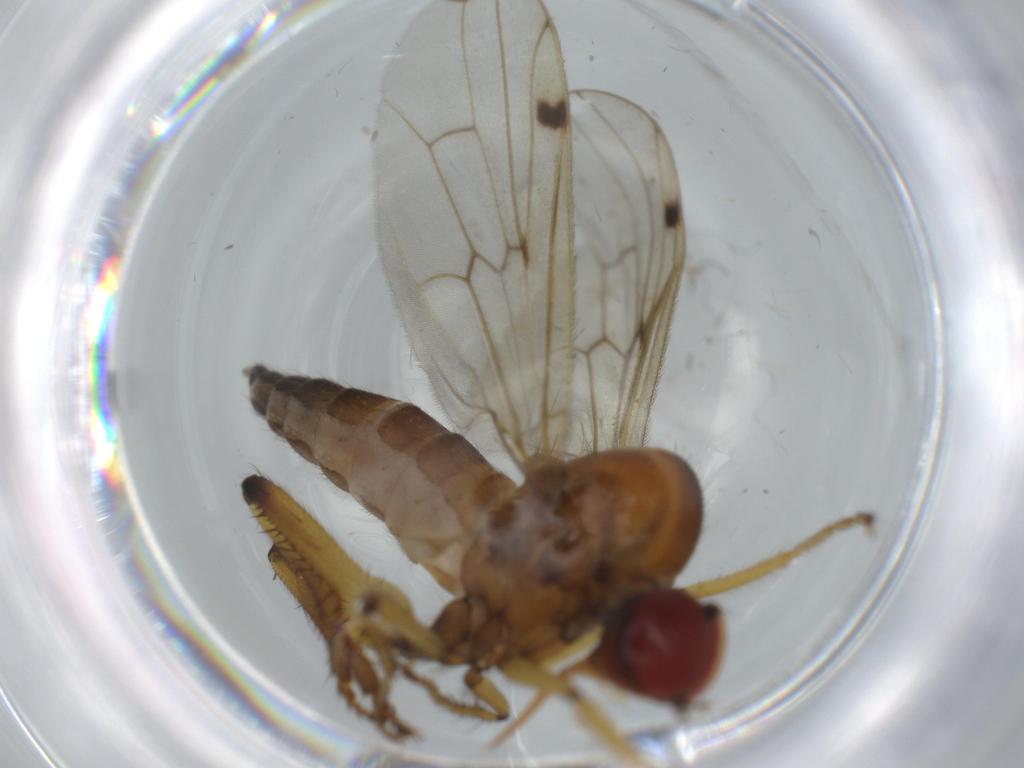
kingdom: Animalia
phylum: Arthropoda
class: Insecta
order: Diptera
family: Hybotidae
